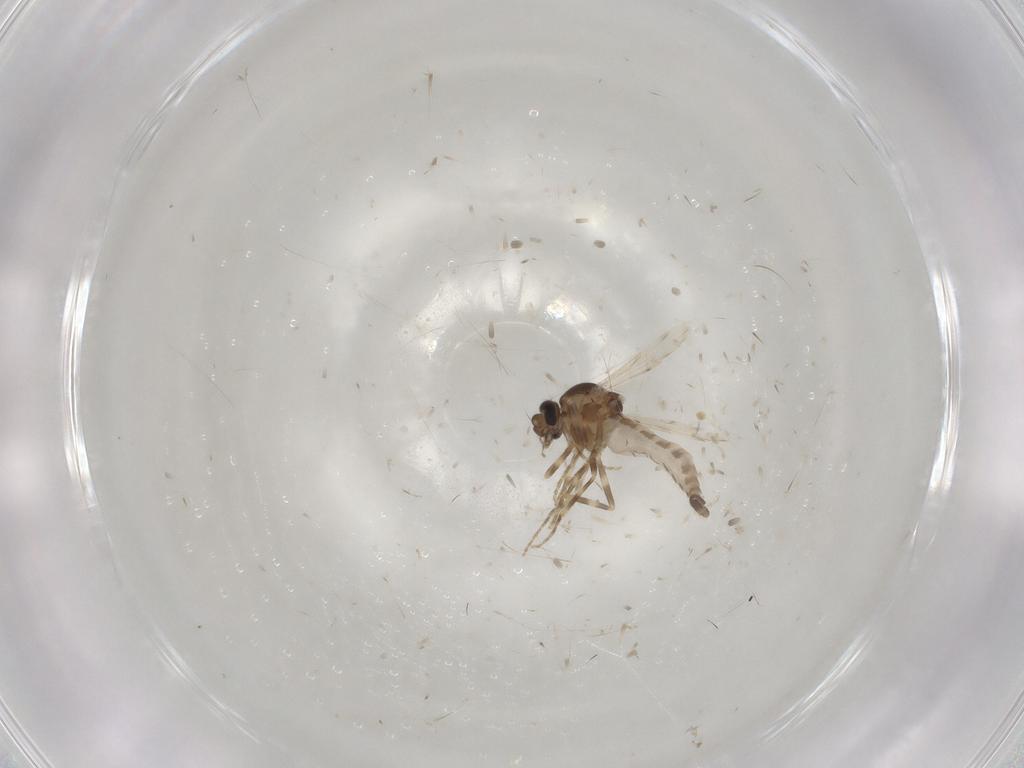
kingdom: Animalia
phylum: Arthropoda
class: Insecta
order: Diptera
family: Ceratopogonidae
